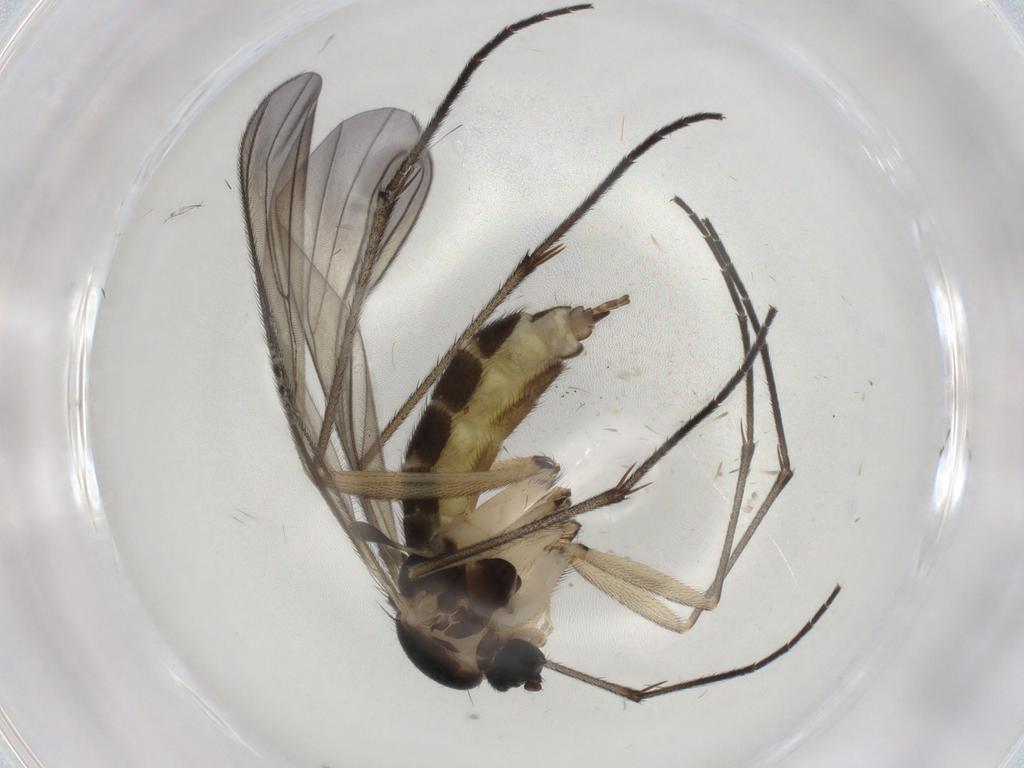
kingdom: Animalia
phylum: Arthropoda
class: Insecta
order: Diptera
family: Sciaridae
